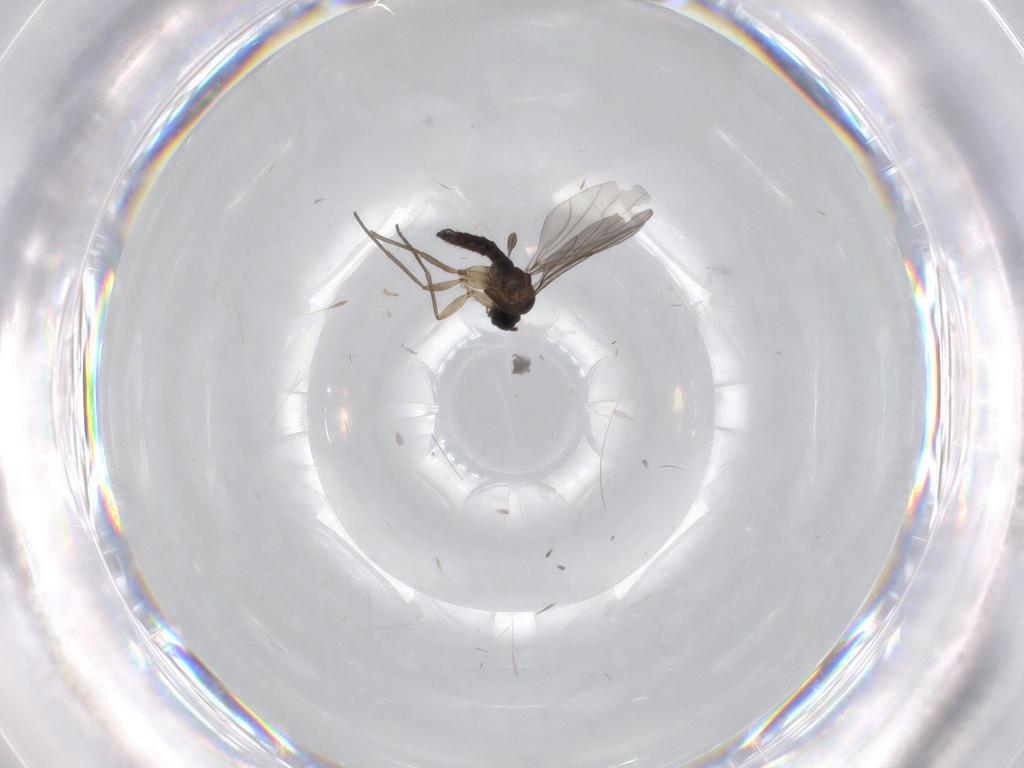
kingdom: Animalia
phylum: Arthropoda
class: Insecta
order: Diptera
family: Sciaridae
